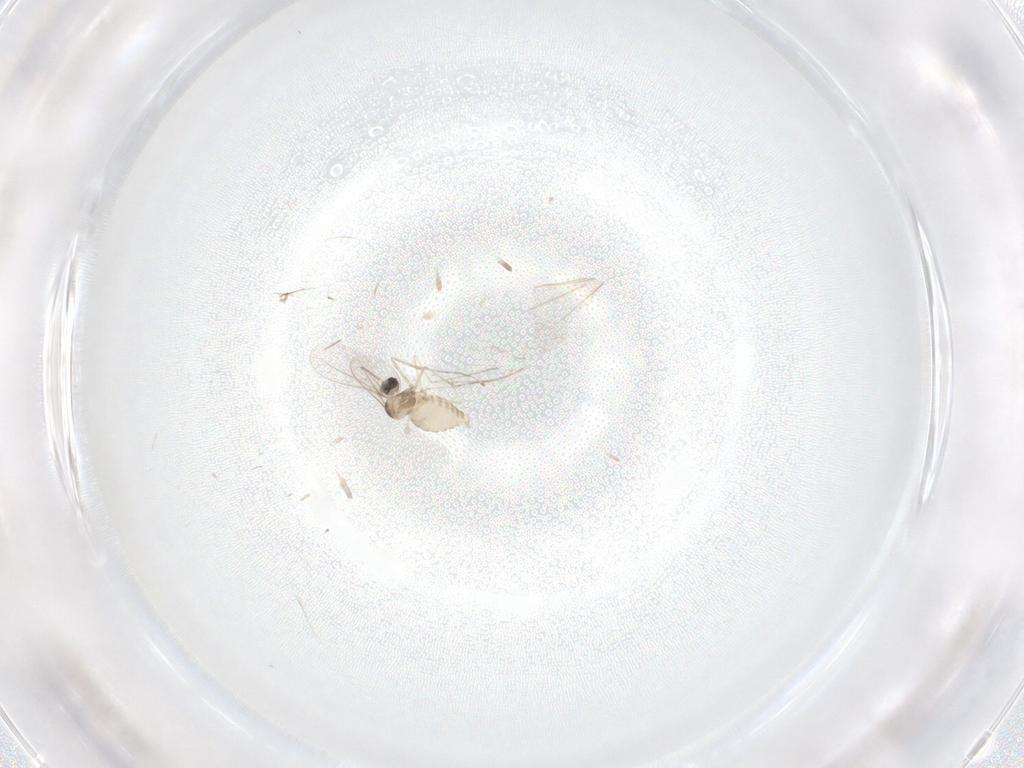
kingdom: Animalia
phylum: Arthropoda
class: Insecta
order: Diptera
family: Cecidomyiidae
